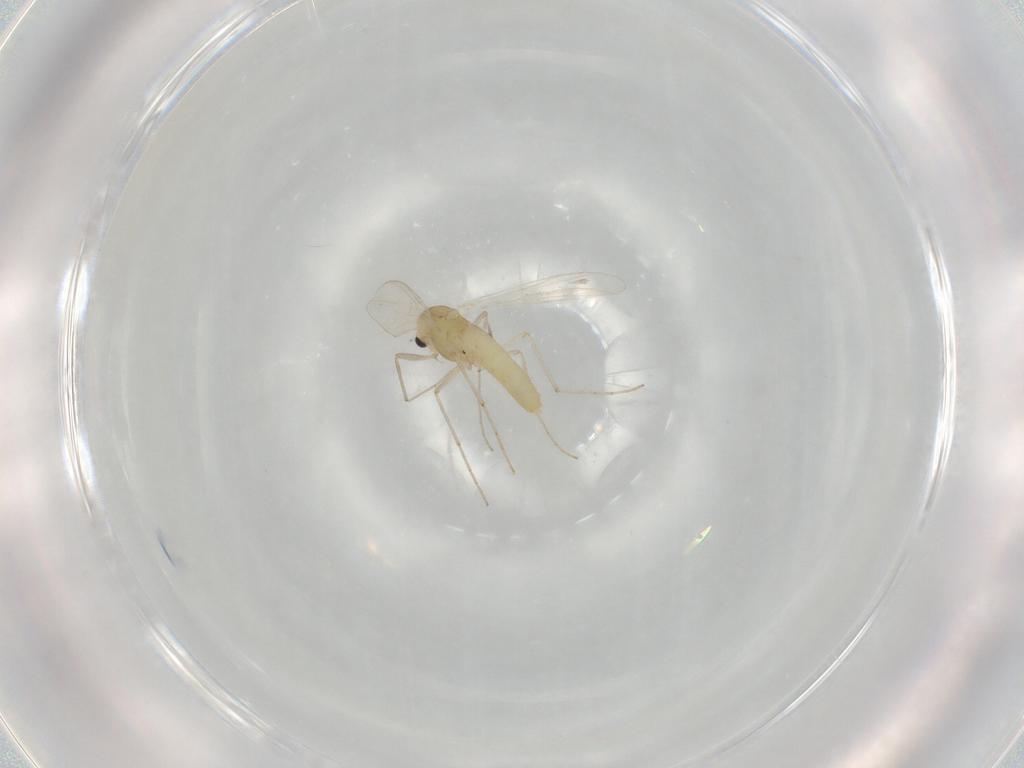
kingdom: Animalia
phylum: Arthropoda
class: Insecta
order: Diptera
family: Chironomidae
